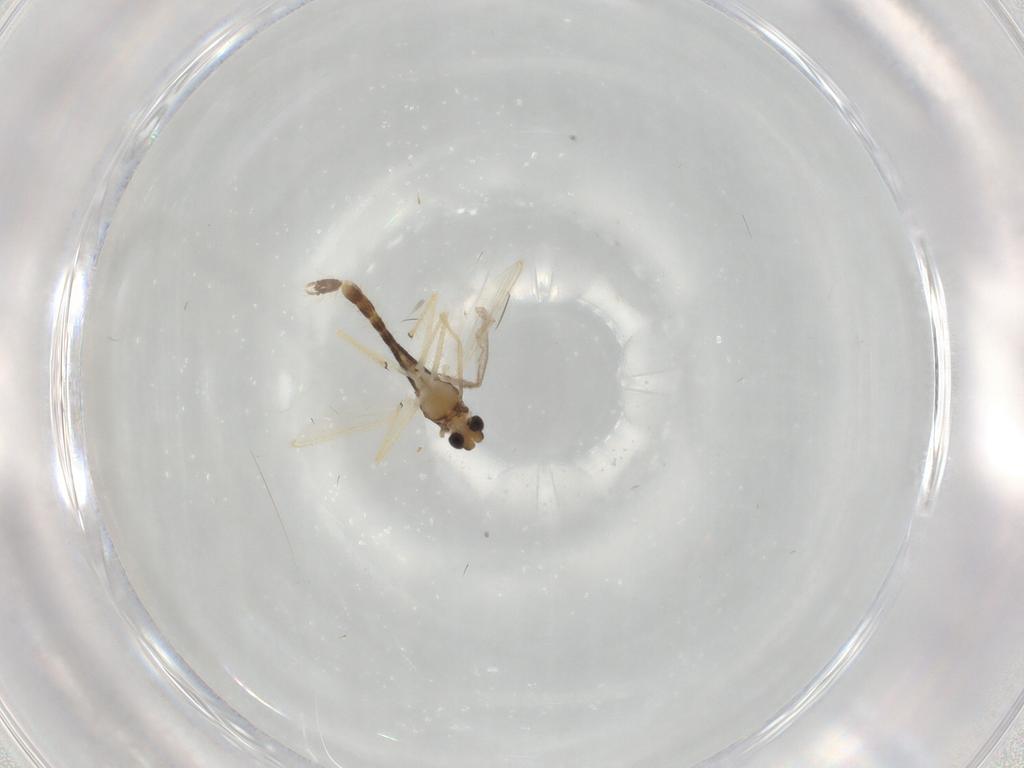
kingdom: Animalia
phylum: Arthropoda
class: Insecta
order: Diptera
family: Chironomidae
